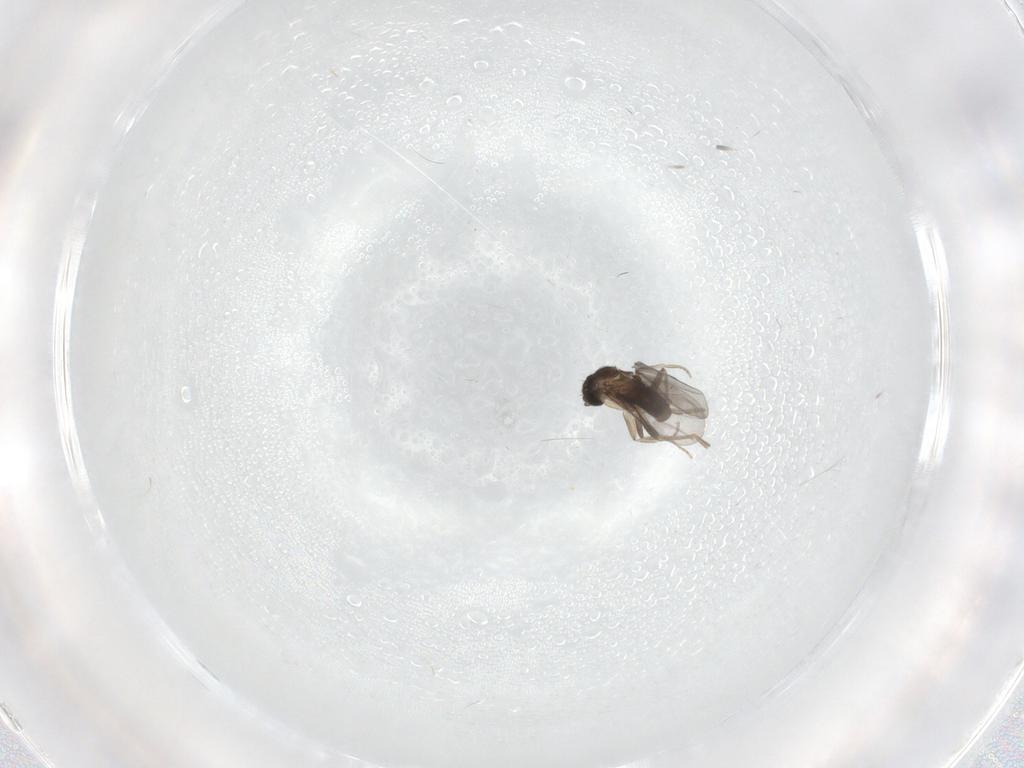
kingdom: Animalia
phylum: Arthropoda
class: Insecta
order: Diptera
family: Sciaridae
